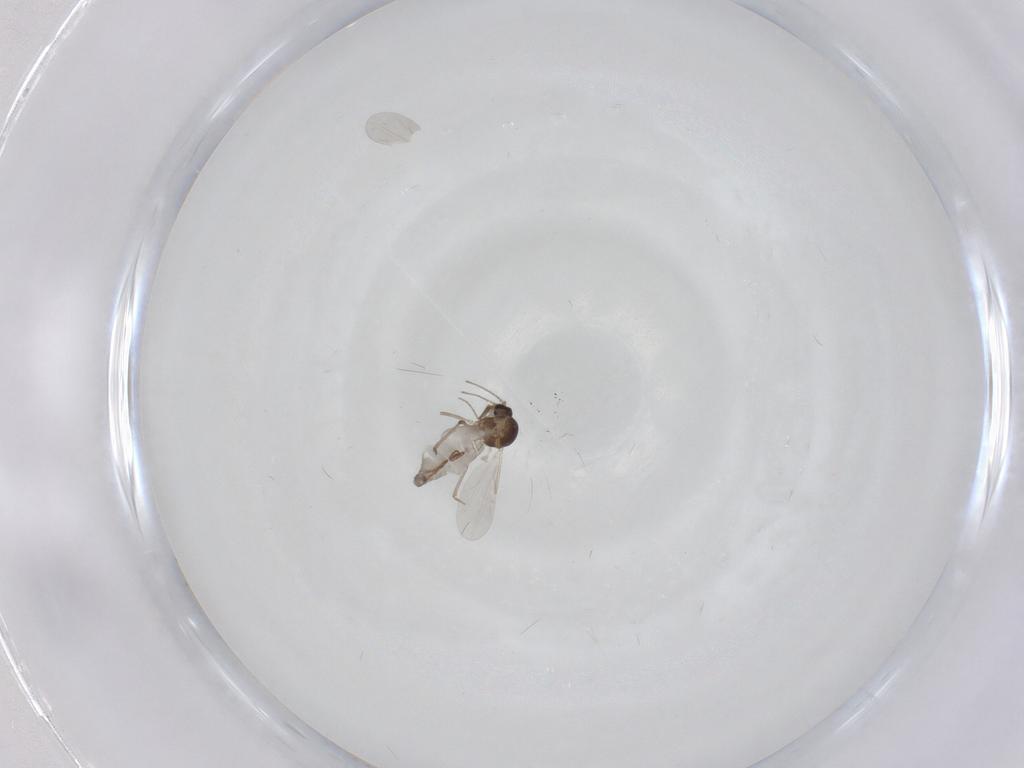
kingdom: Animalia
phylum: Arthropoda
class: Insecta
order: Diptera
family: Ceratopogonidae
